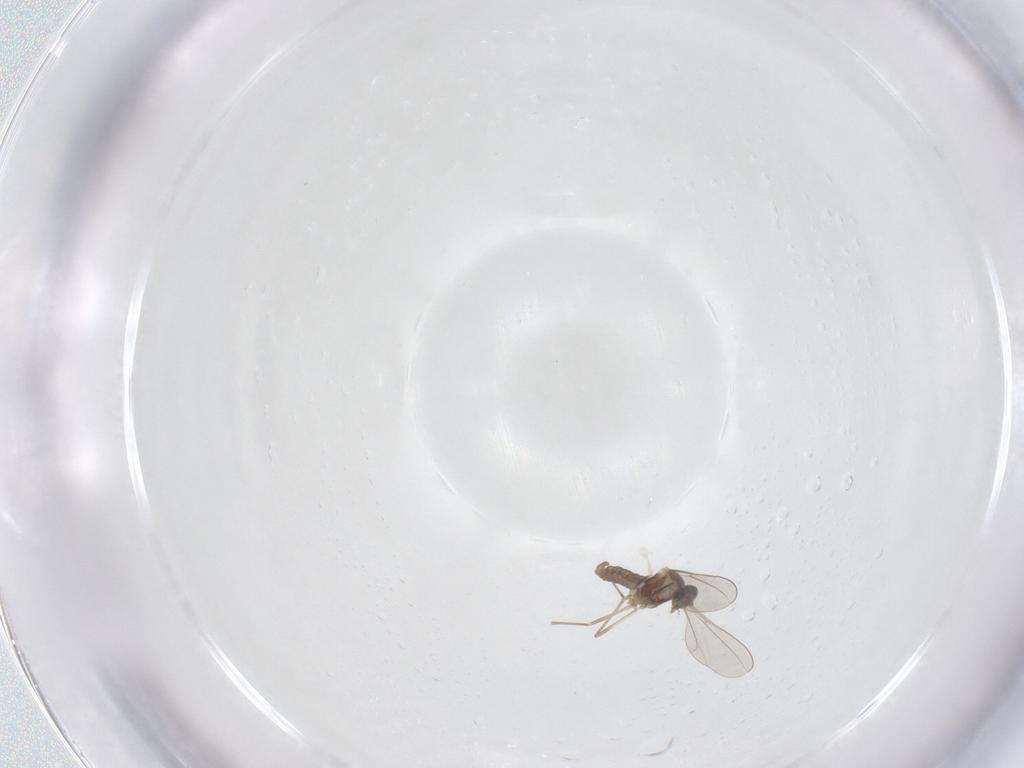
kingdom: Animalia
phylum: Arthropoda
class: Insecta
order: Diptera
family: Cecidomyiidae
